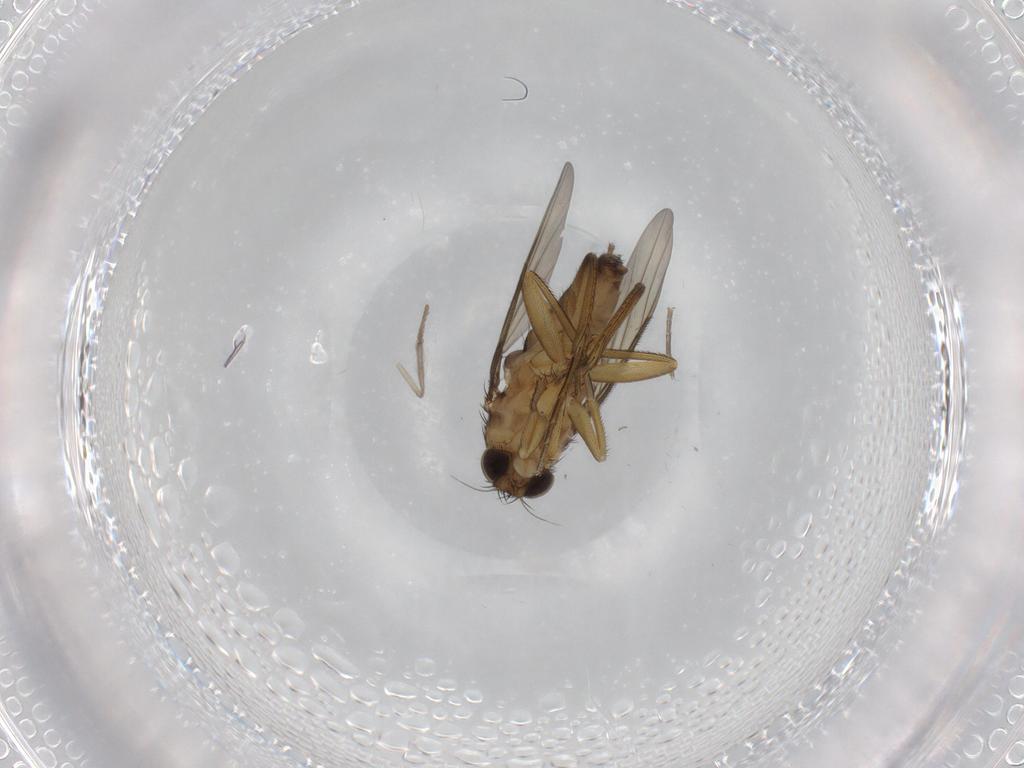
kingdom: Animalia
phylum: Arthropoda
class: Insecta
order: Diptera
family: Phoridae
